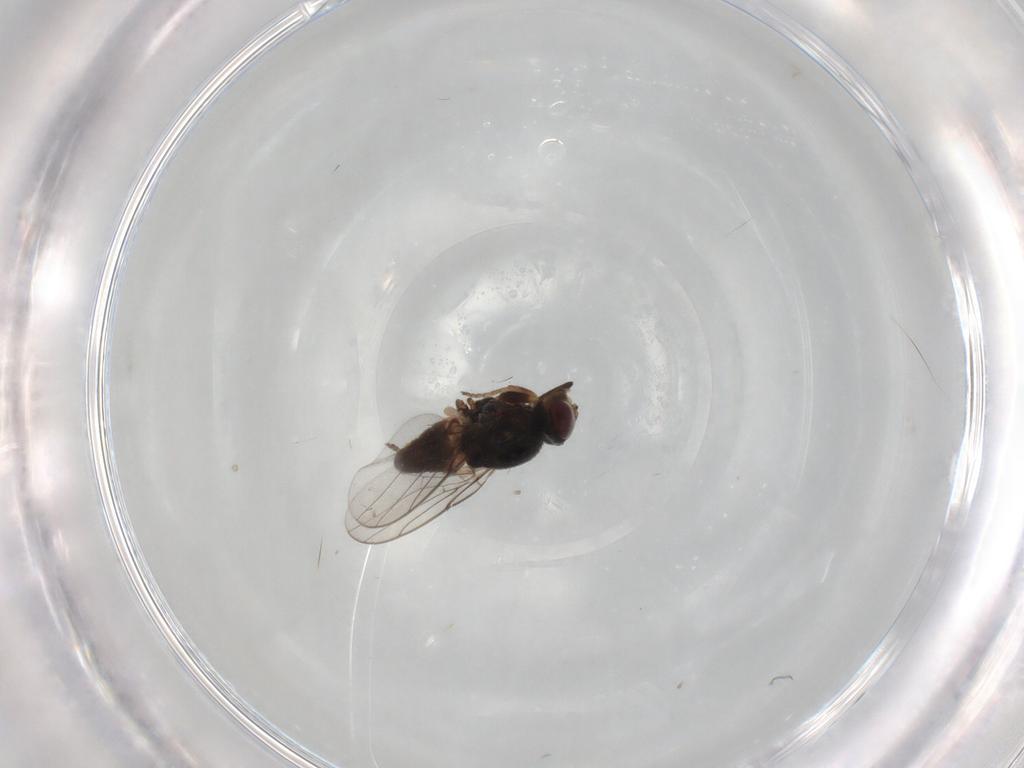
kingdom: Animalia
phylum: Arthropoda
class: Insecta
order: Diptera
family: Chloropidae
